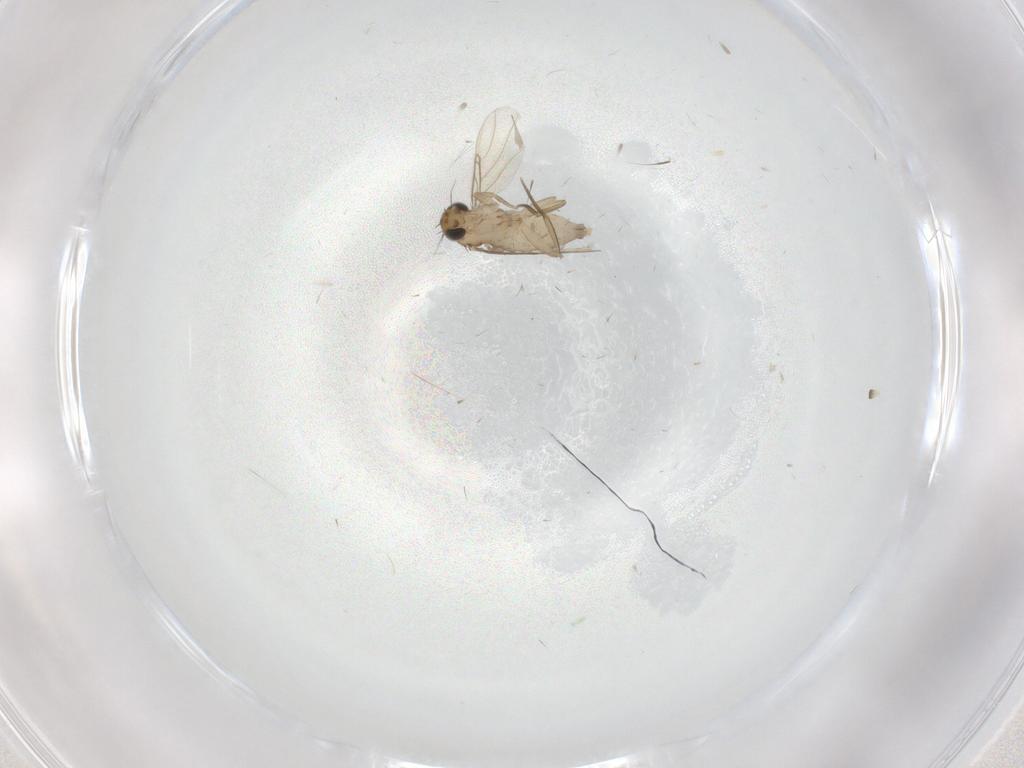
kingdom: Animalia
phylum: Arthropoda
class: Insecta
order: Diptera
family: Phoridae
